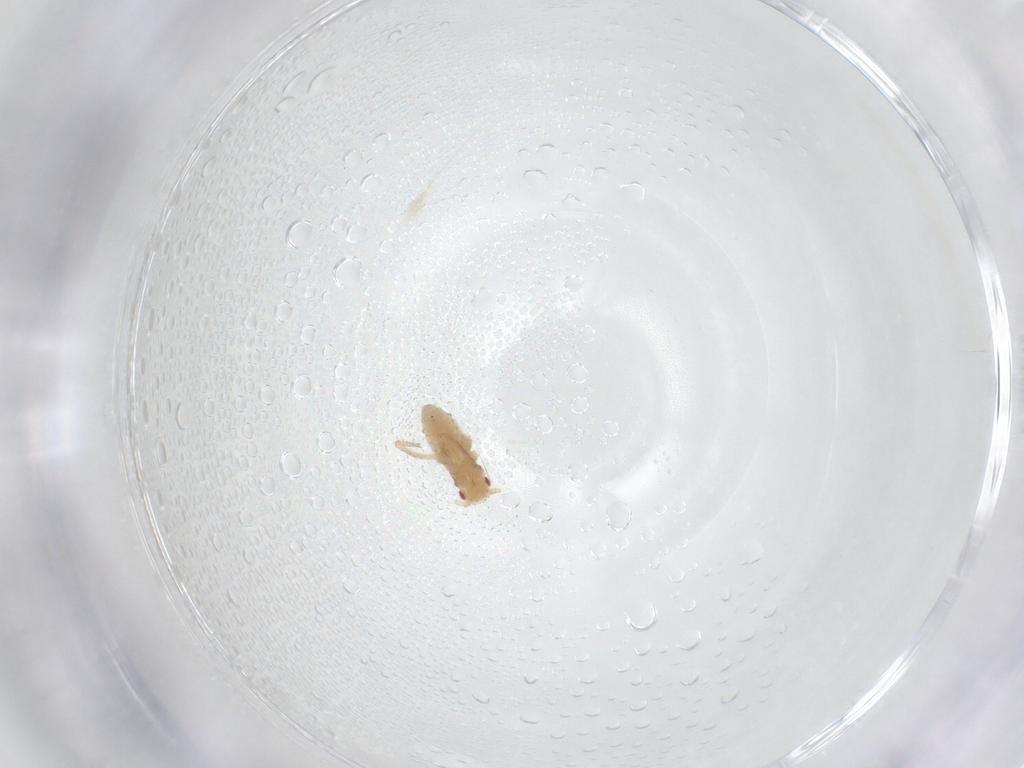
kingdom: Animalia
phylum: Arthropoda
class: Insecta
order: Hemiptera
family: Aphididae
